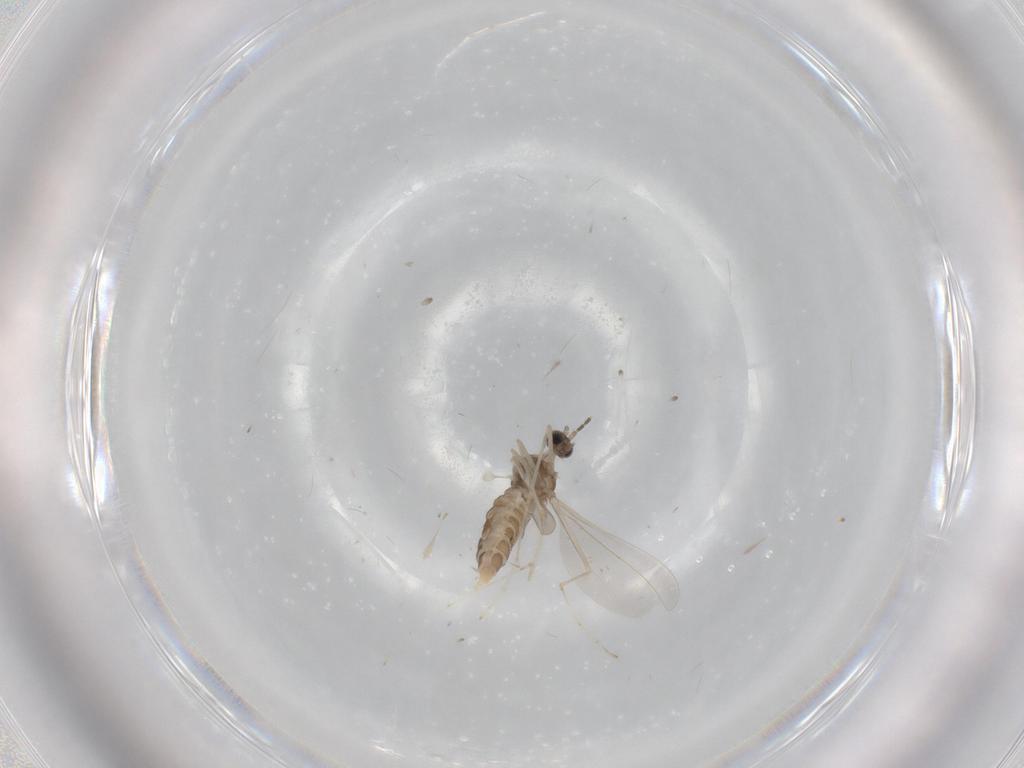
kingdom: Animalia
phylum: Arthropoda
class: Insecta
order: Diptera
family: Cecidomyiidae
